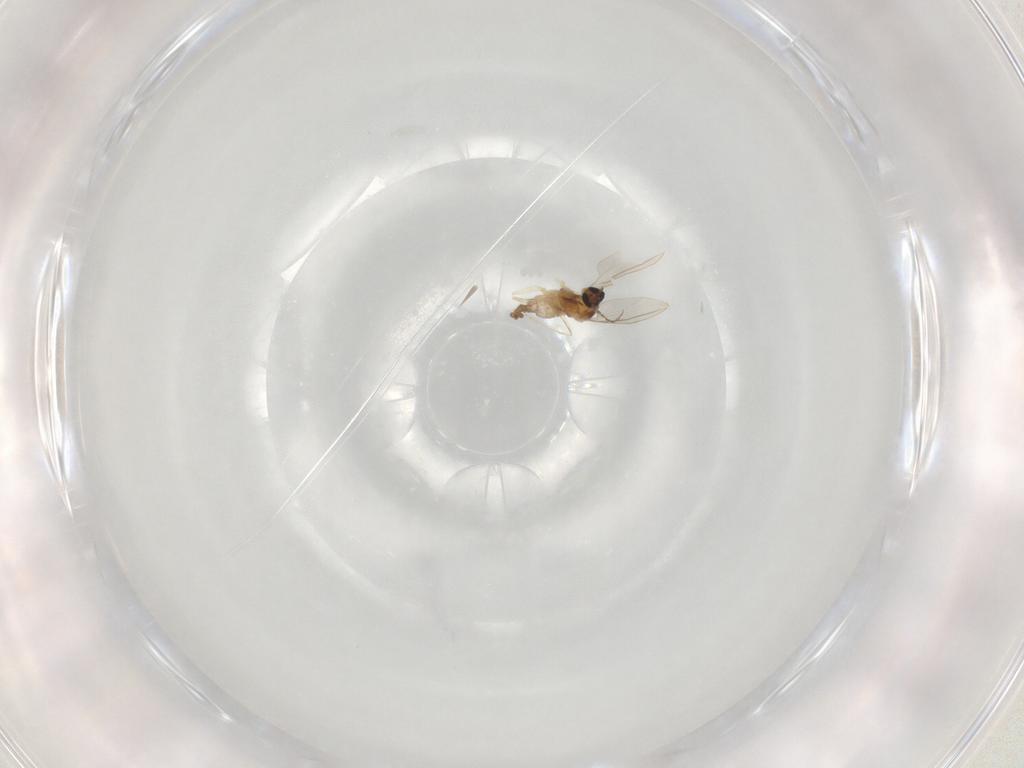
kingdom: Animalia
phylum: Arthropoda
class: Insecta
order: Diptera
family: Cecidomyiidae
